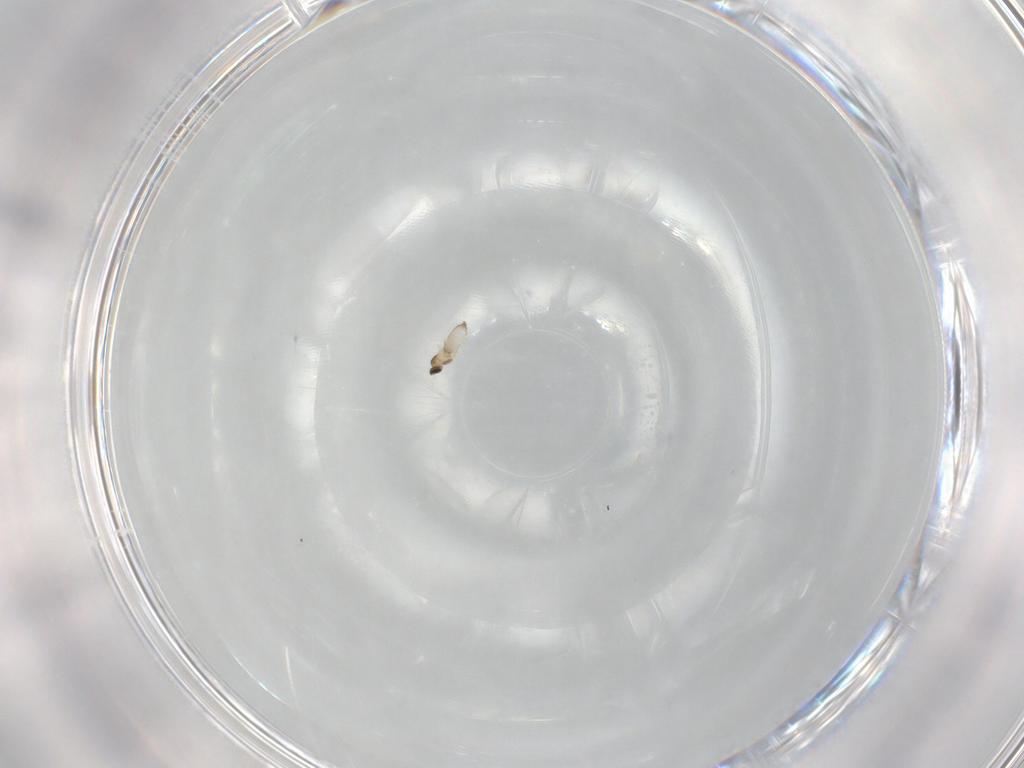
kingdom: Animalia
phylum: Arthropoda
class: Insecta
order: Diptera
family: Phoridae
